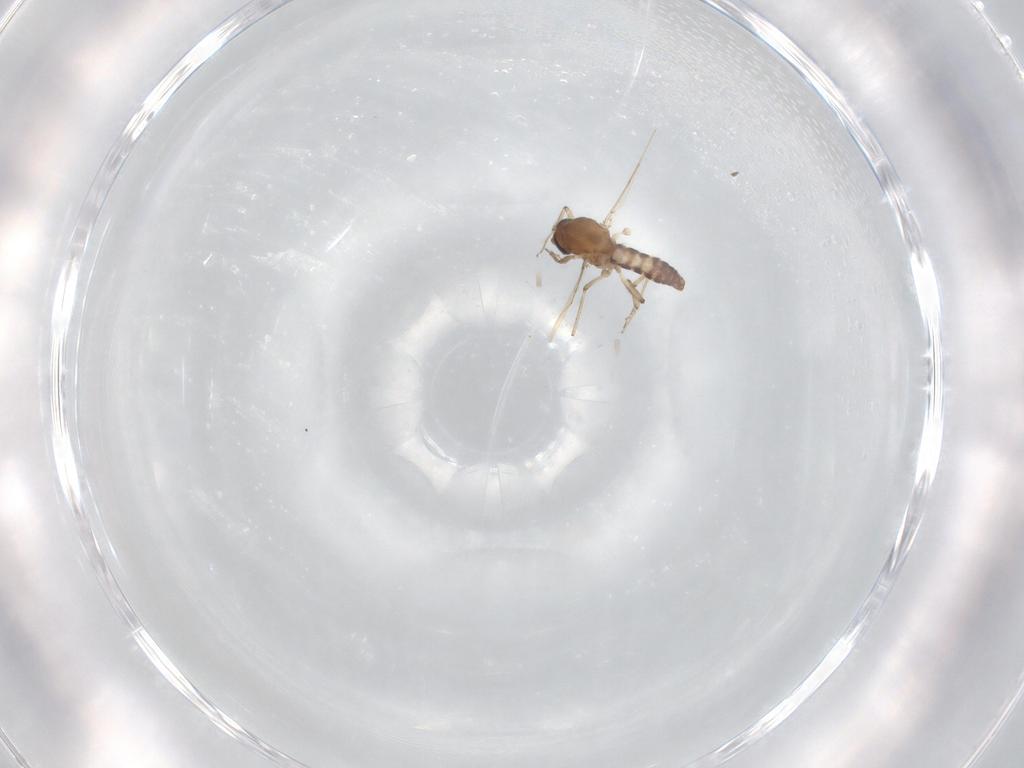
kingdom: Animalia
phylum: Arthropoda
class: Insecta
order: Diptera
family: Ceratopogonidae
